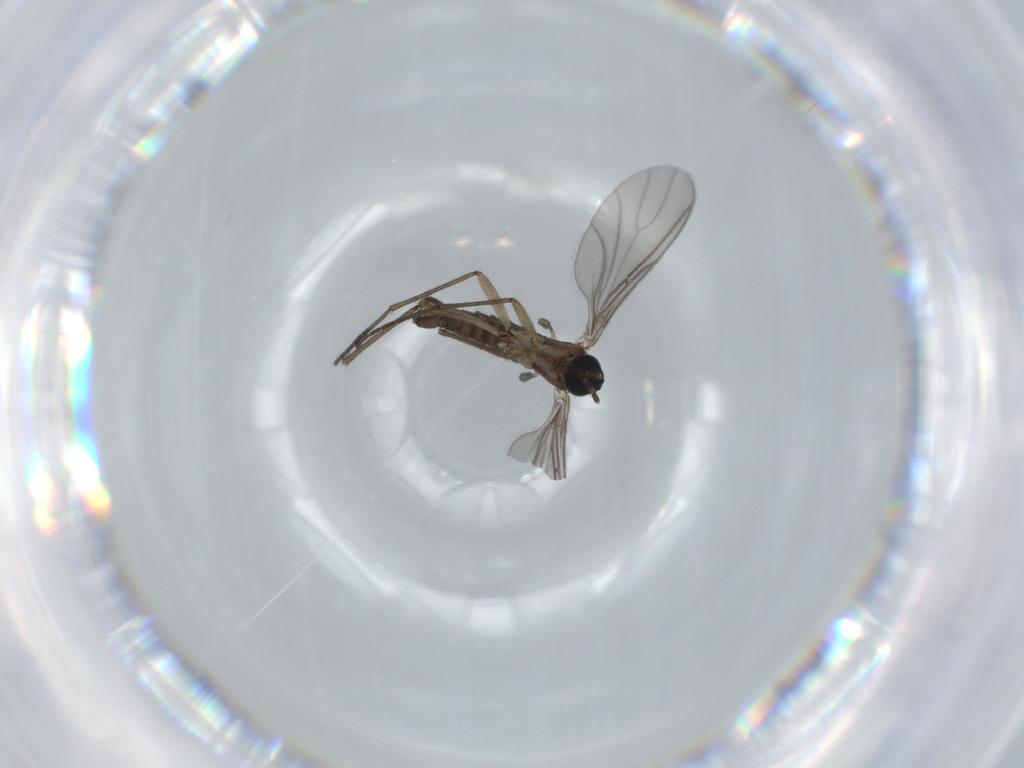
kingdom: Animalia
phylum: Arthropoda
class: Insecta
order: Diptera
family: Sciaridae
